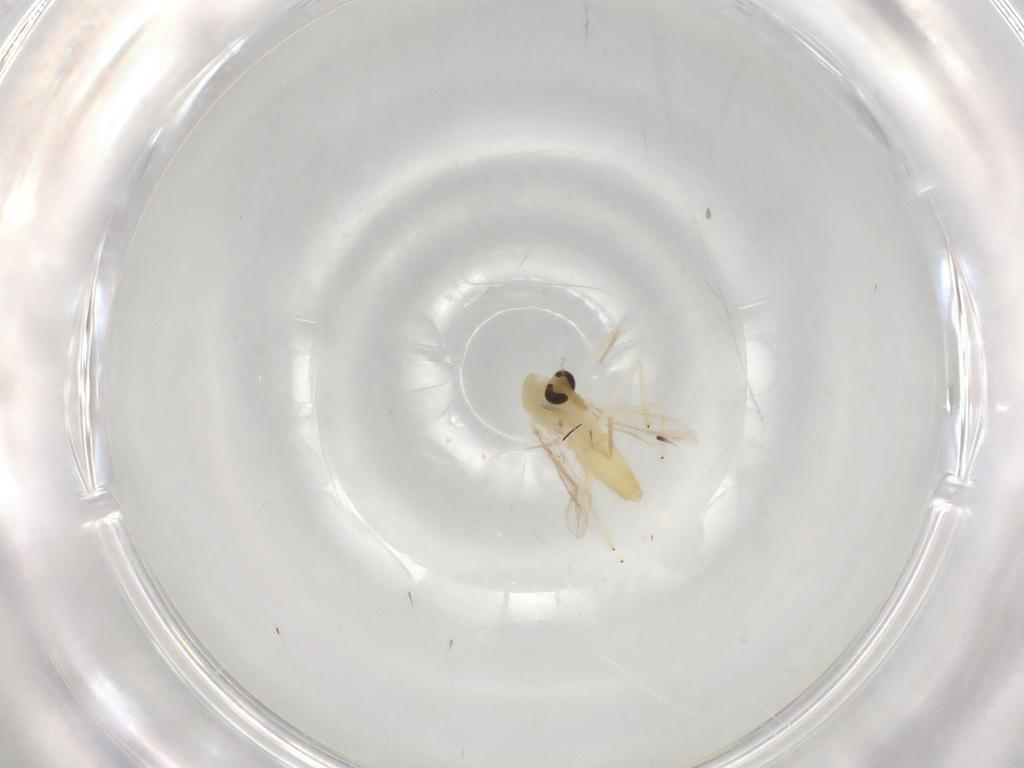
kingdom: Animalia
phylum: Arthropoda
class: Insecta
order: Diptera
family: Chironomidae
